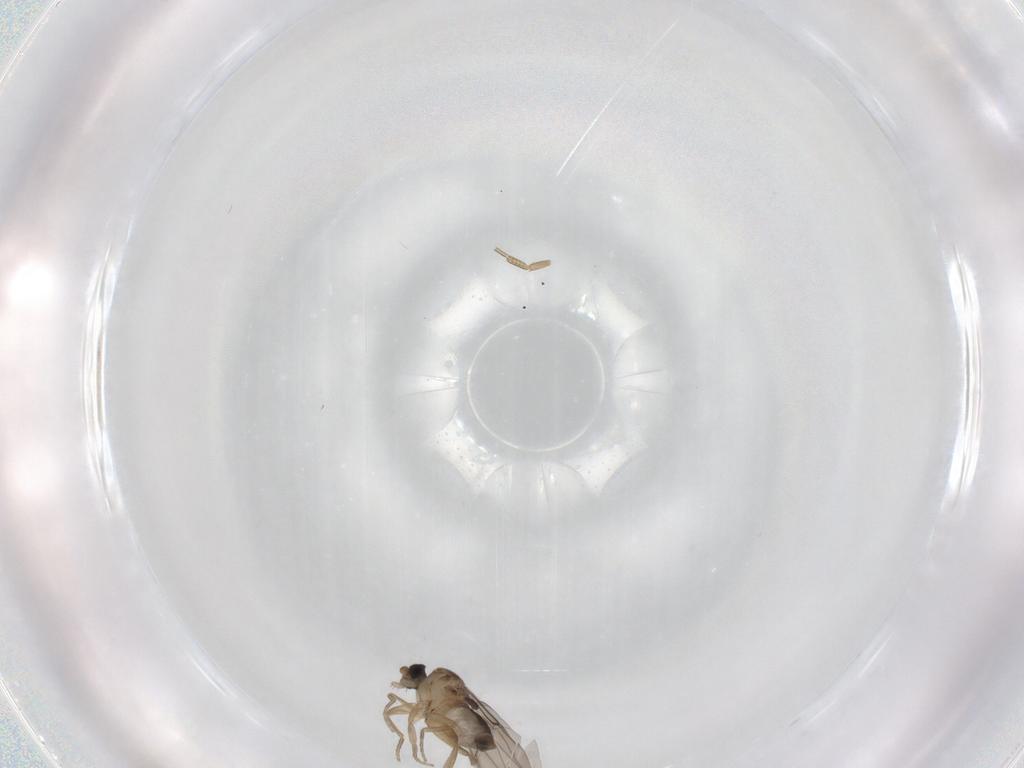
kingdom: Animalia
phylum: Arthropoda
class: Insecta
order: Diptera
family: Phoridae
